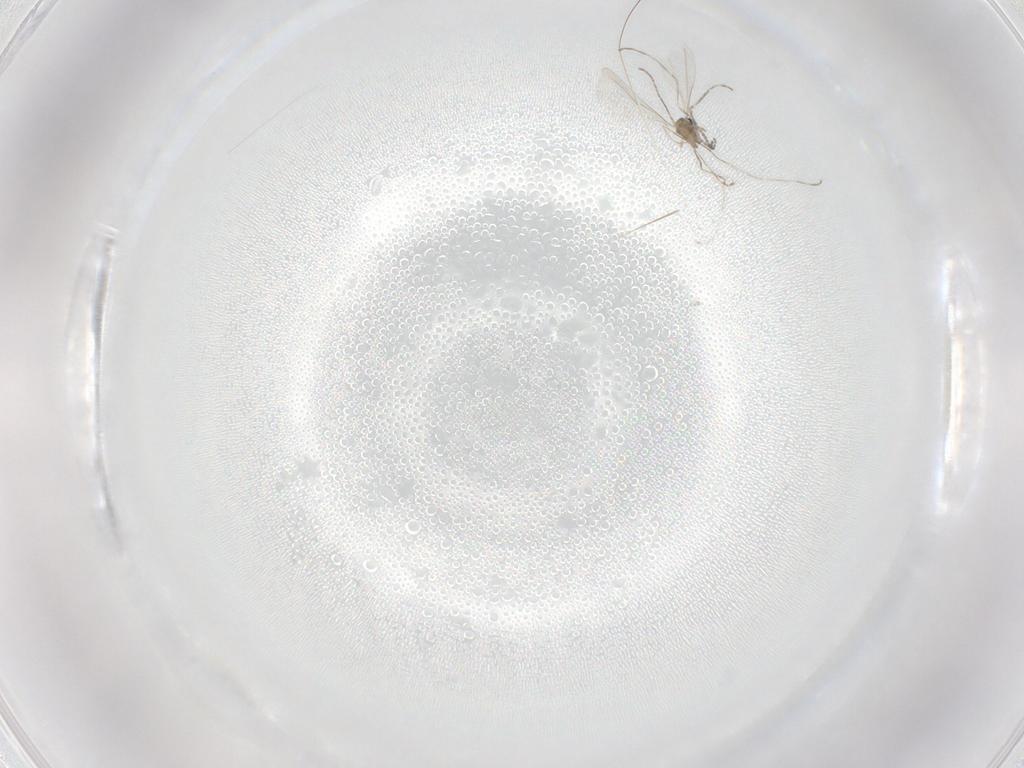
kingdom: Animalia
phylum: Arthropoda
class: Insecta
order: Diptera
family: Cecidomyiidae
